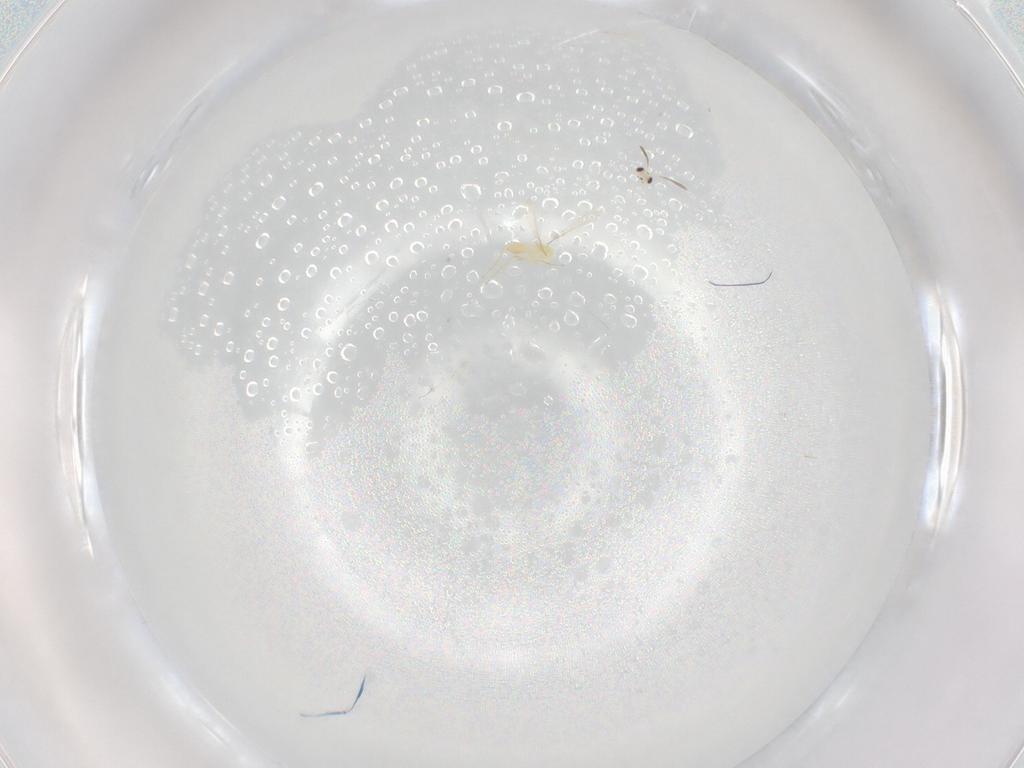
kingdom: Animalia
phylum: Arthropoda
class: Insecta
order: Hymenoptera
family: Mymaridae
